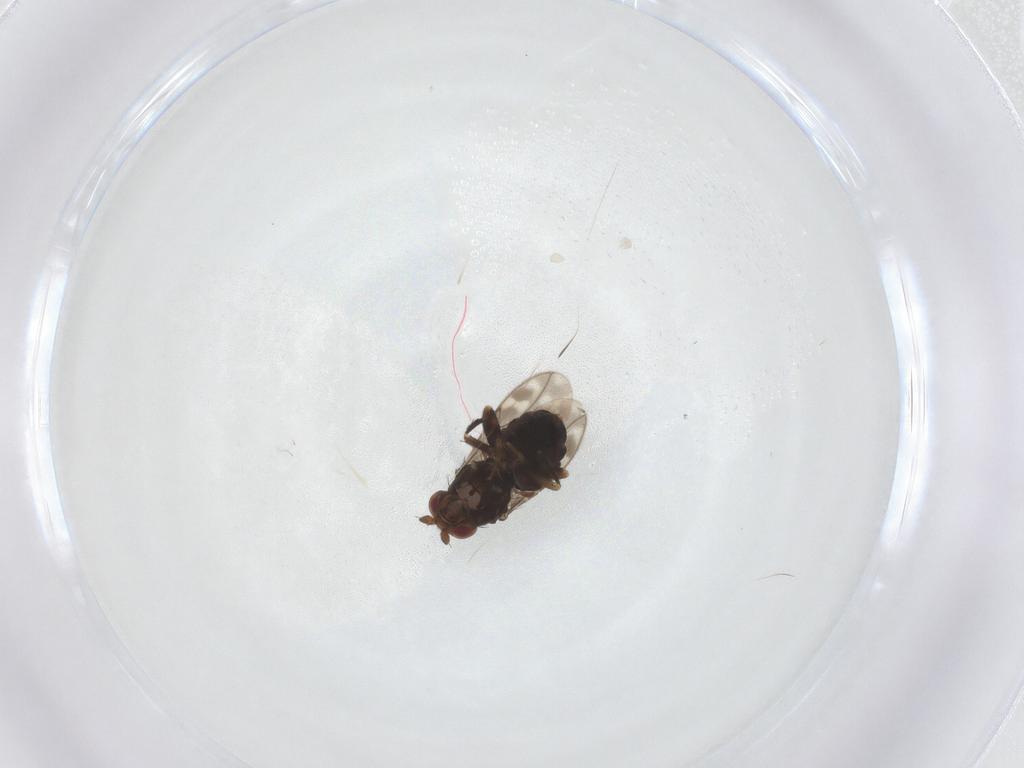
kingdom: Animalia
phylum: Arthropoda
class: Insecta
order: Diptera
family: Sphaeroceridae
